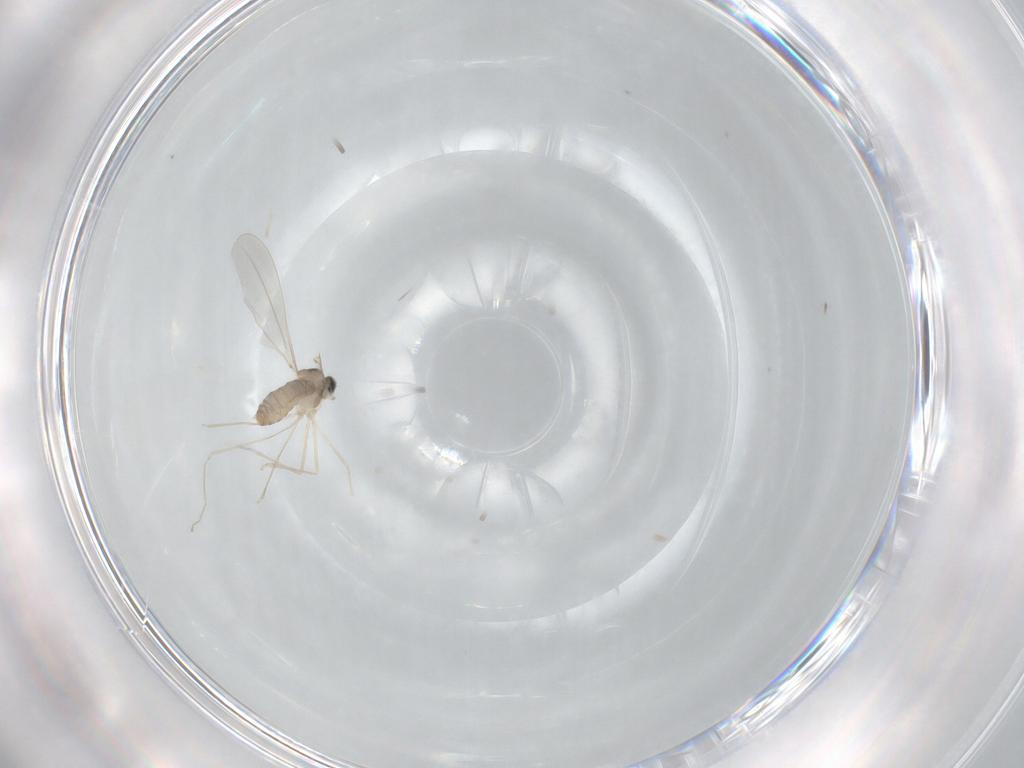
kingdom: Animalia
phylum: Arthropoda
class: Insecta
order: Diptera
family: Cecidomyiidae
